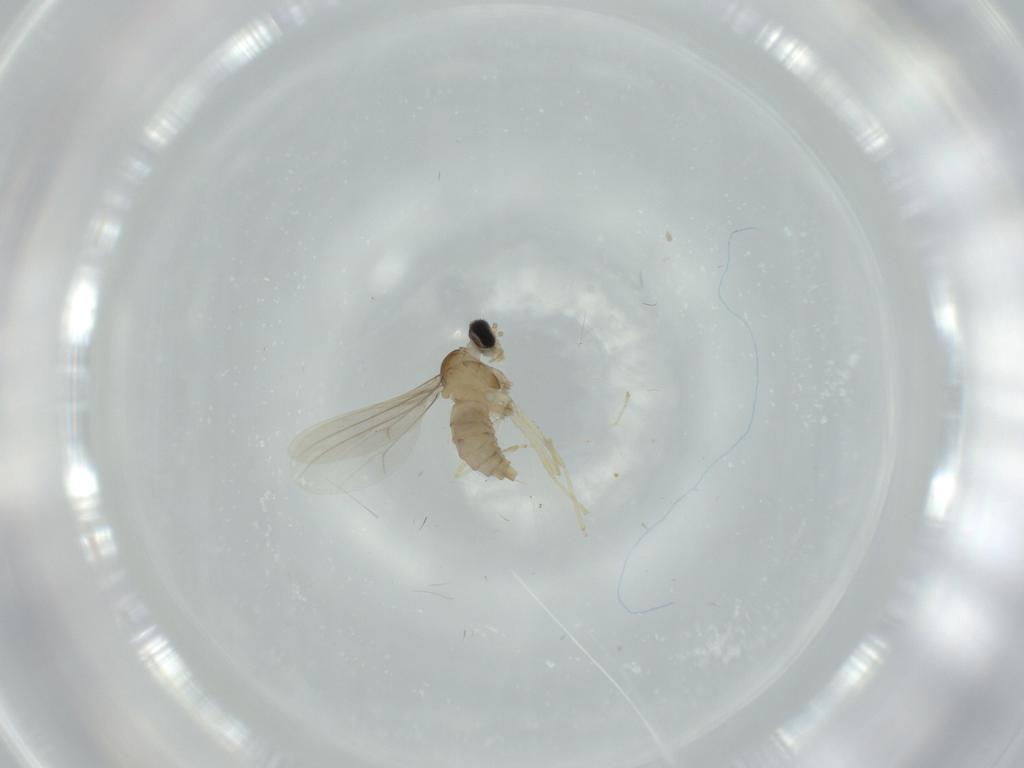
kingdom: Animalia
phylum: Arthropoda
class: Insecta
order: Diptera
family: Cecidomyiidae
